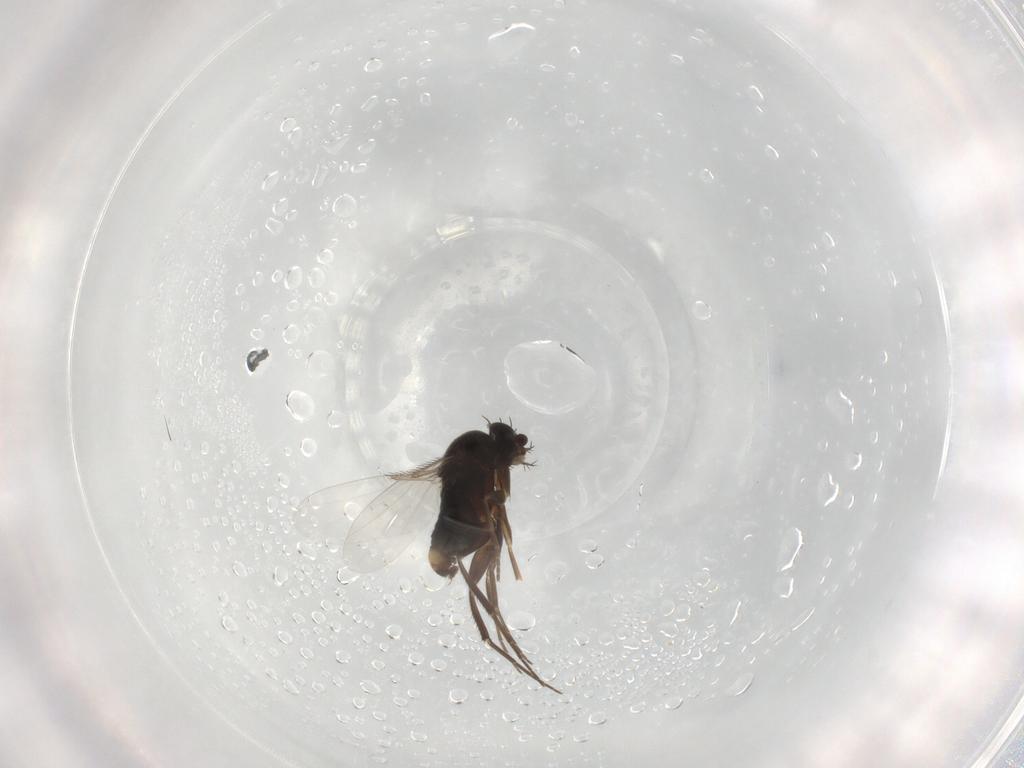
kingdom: Animalia
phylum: Arthropoda
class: Insecta
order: Diptera
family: Phoridae
